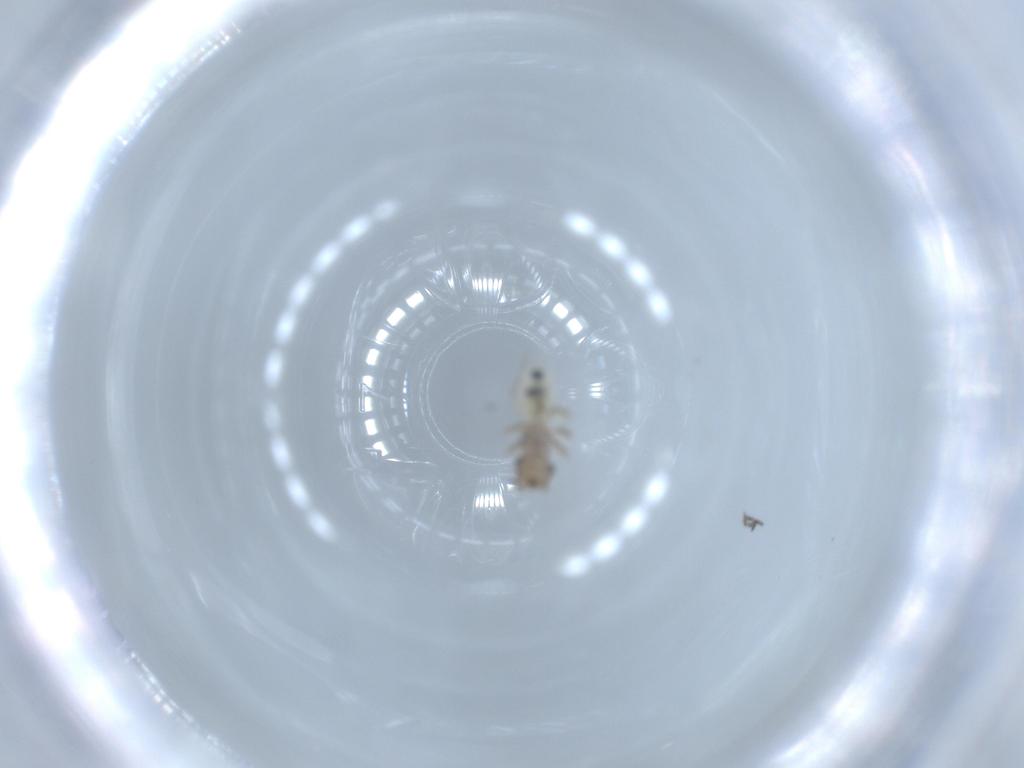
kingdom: Animalia
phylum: Arthropoda
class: Insecta
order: Psocodea
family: Lepidopsocidae
